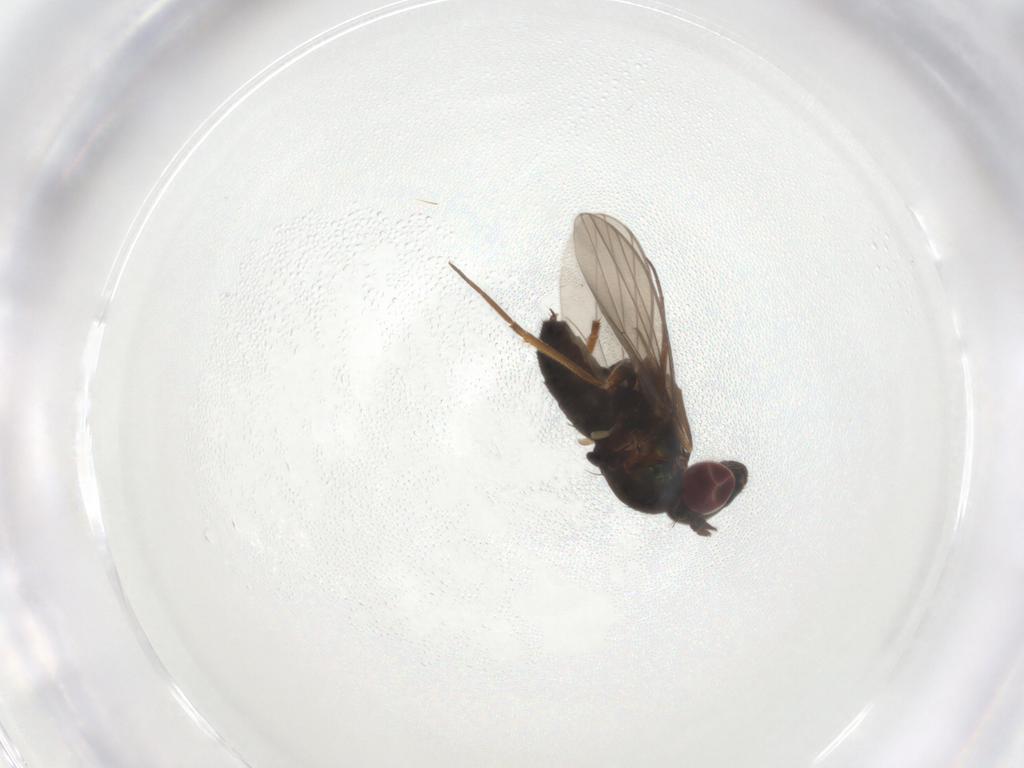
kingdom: Animalia
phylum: Arthropoda
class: Insecta
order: Diptera
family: Dolichopodidae
